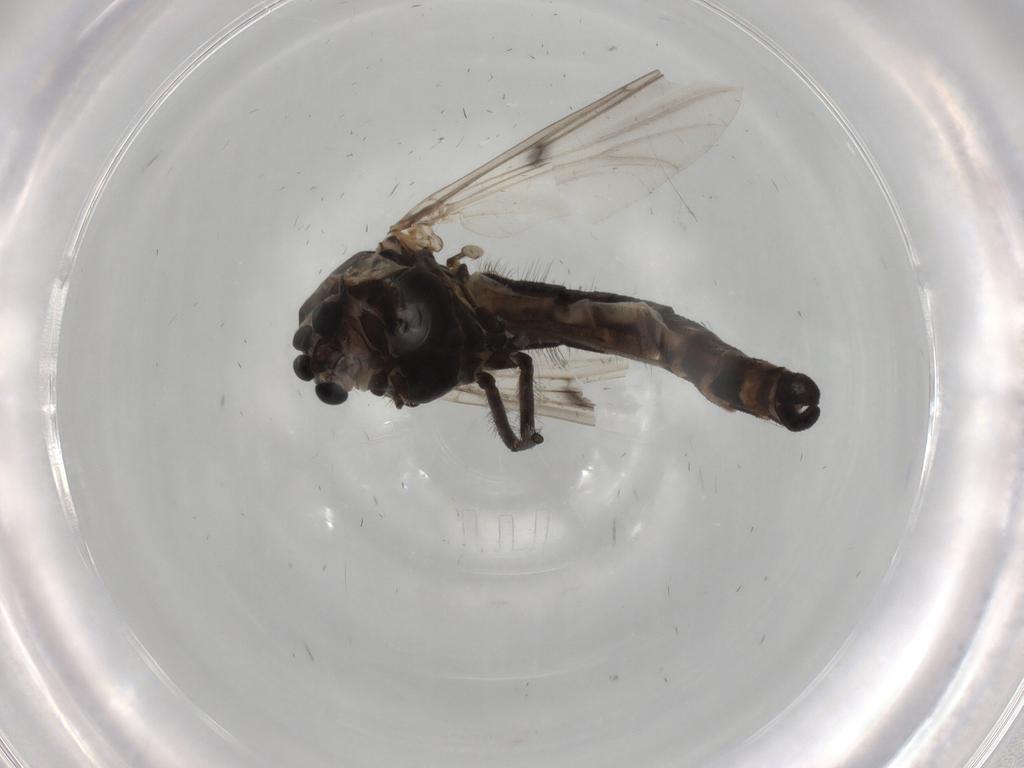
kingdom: Animalia
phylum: Arthropoda
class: Insecta
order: Diptera
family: Chironomidae
